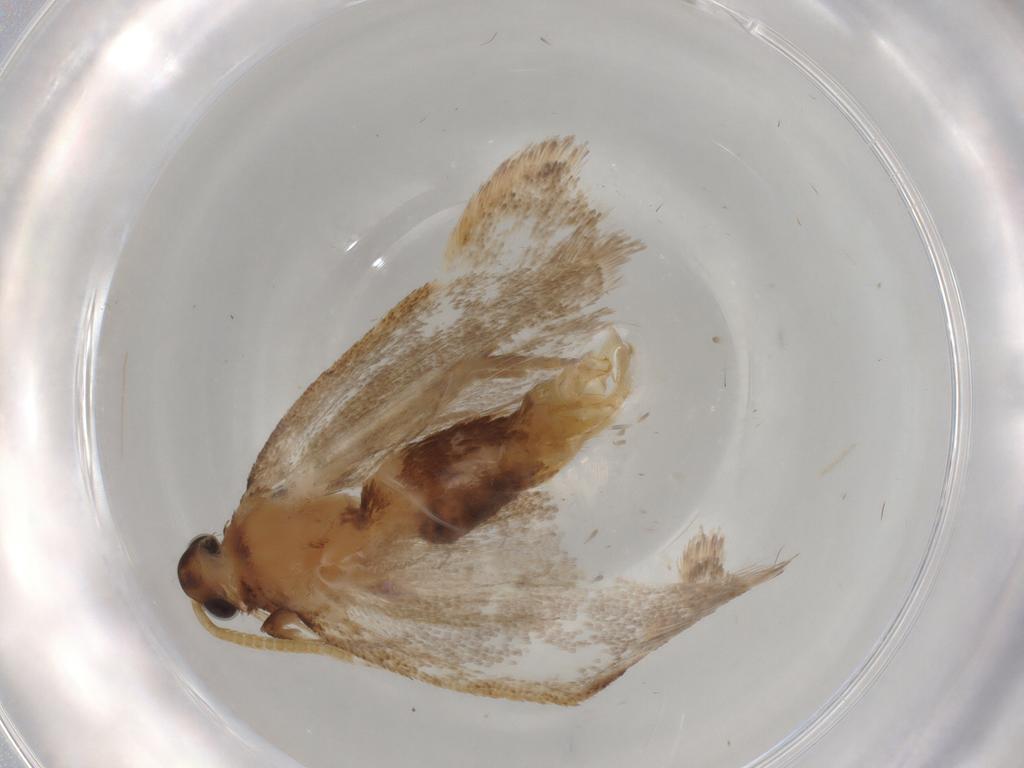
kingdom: Animalia
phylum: Arthropoda
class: Insecta
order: Lepidoptera
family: Lecithoceridae
